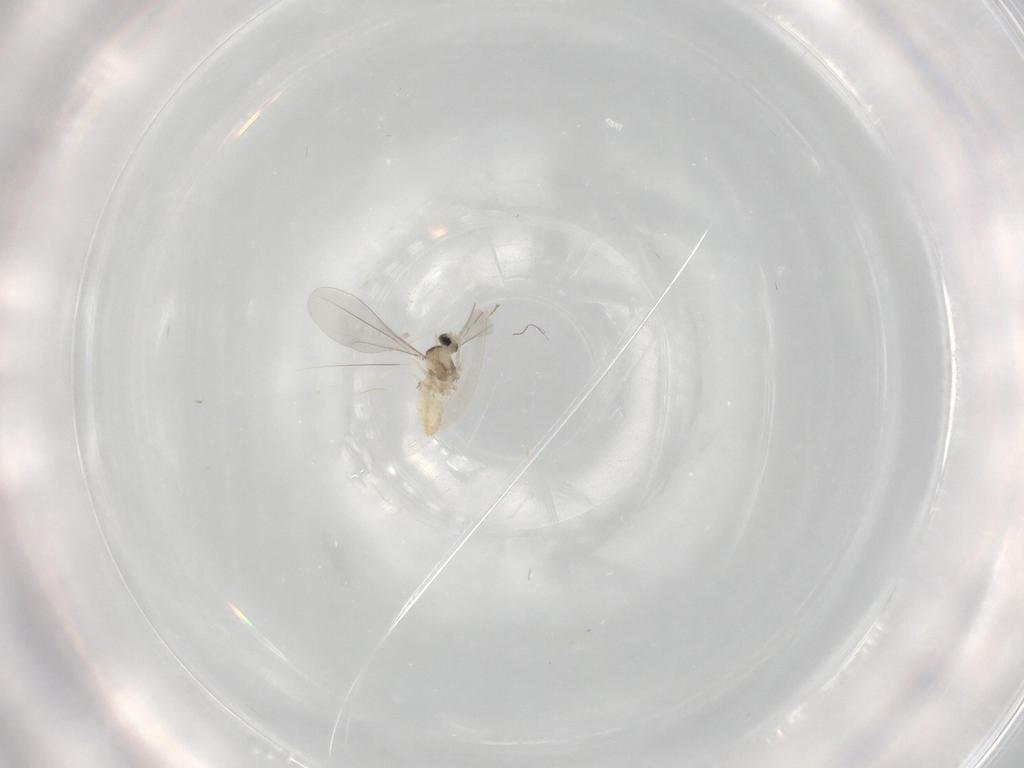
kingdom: Animalia
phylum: Arthropoda
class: Insecta
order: Diptera
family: Cecidomyiidae
